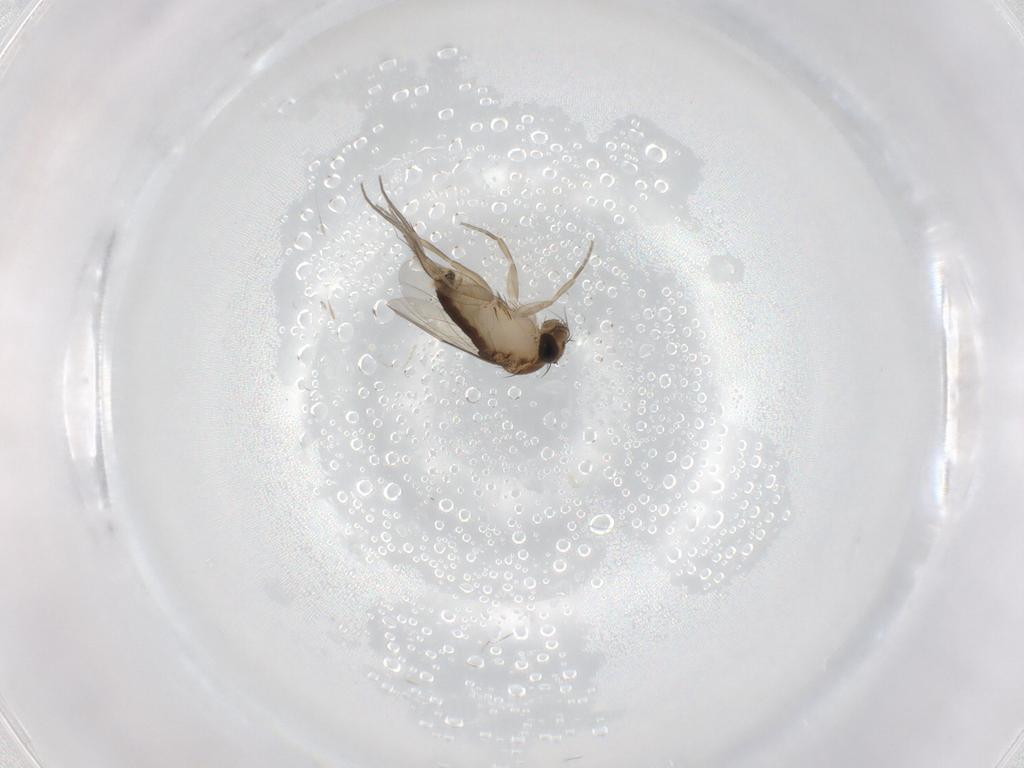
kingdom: Animalia
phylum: Arthropoda
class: Insecta
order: Diptera
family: Phoridae
